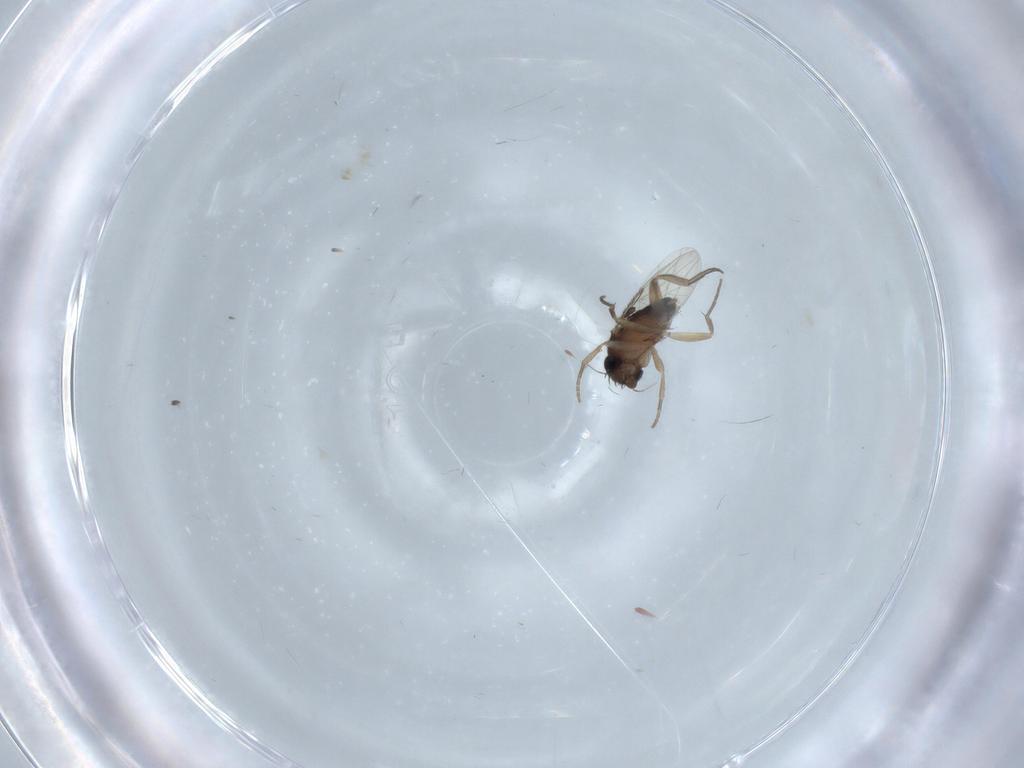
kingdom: Animalia
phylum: Arthropoda
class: Insecta
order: Diptera
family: Phoridae
